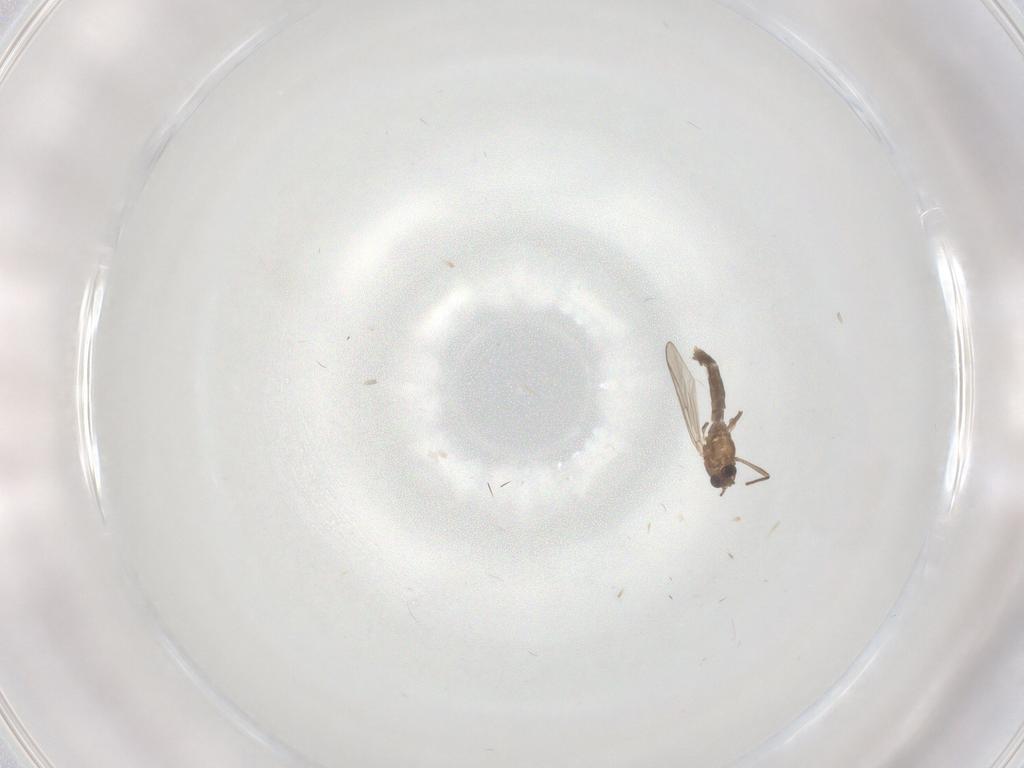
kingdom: Animalia
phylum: Arthropoda
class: Insecta
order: Diptera
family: Chironomidae
